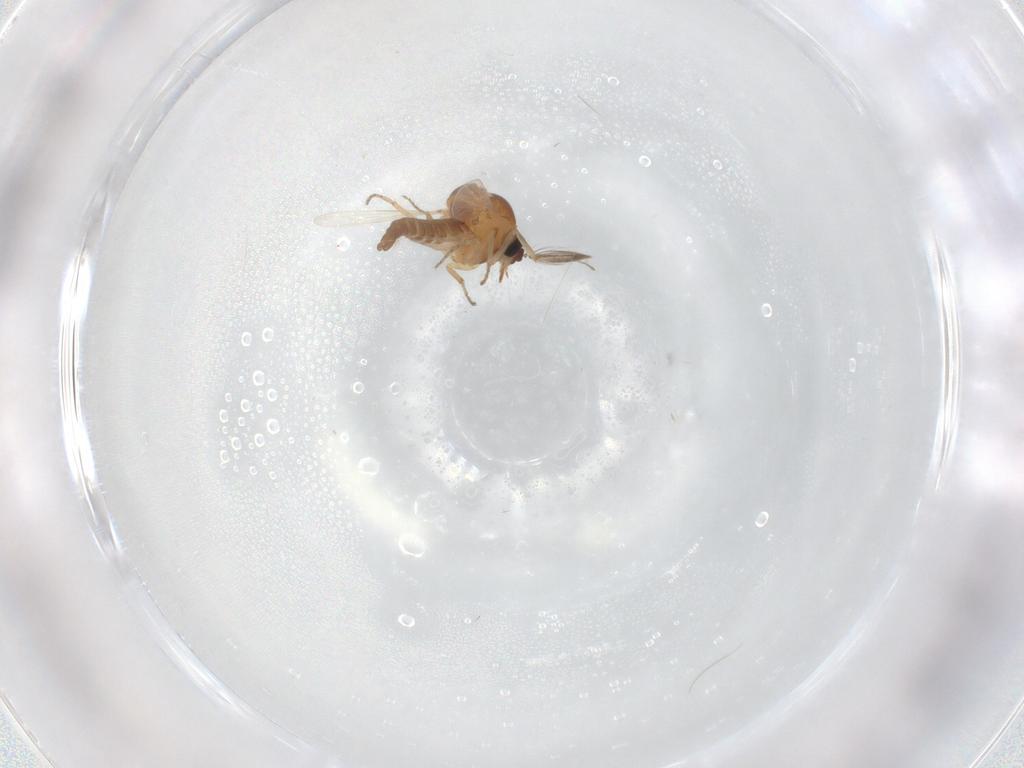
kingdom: Animalia
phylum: Arthropoda
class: Insecta
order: Diptera
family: Ceratopogonidae
